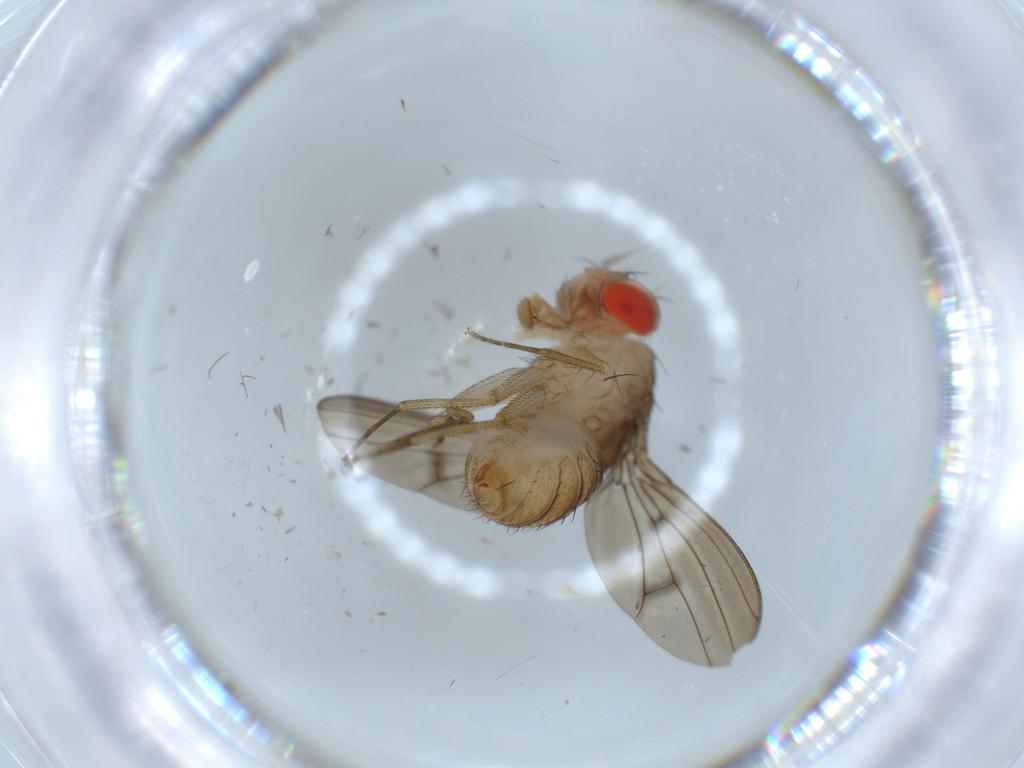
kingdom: Animalia
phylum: Arthropoda
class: Insecta
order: Diptera
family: Drosophilidae
